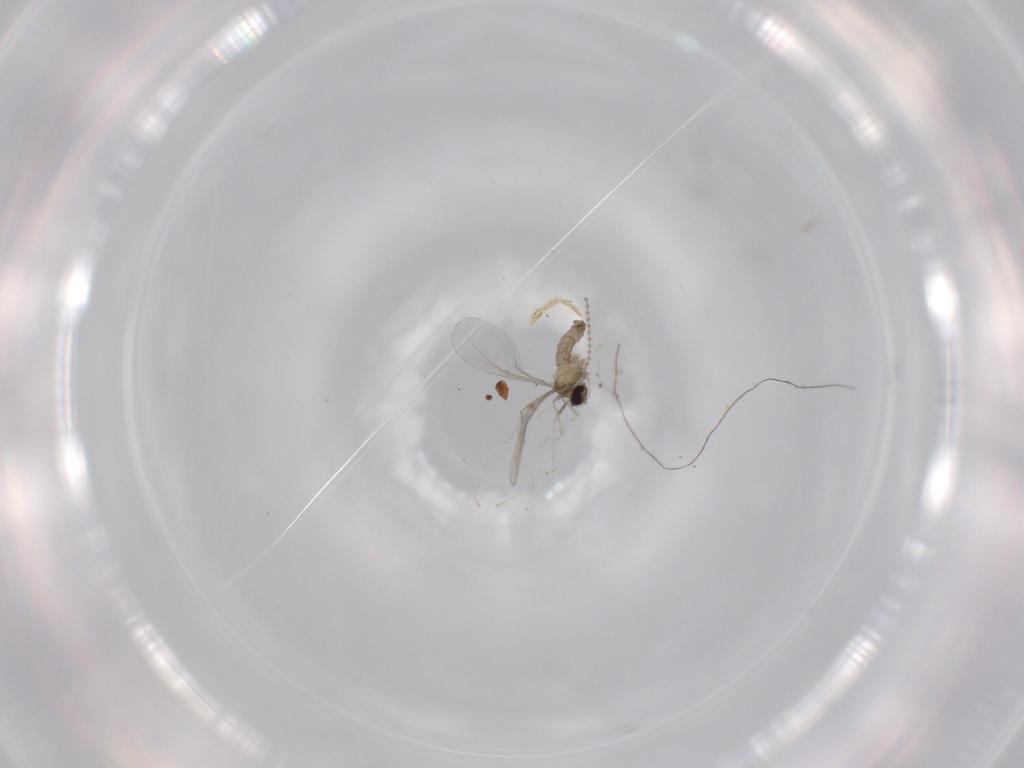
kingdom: Animalia
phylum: Arthropoda
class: Insecta
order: Diptera
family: Cecidomyiidae
